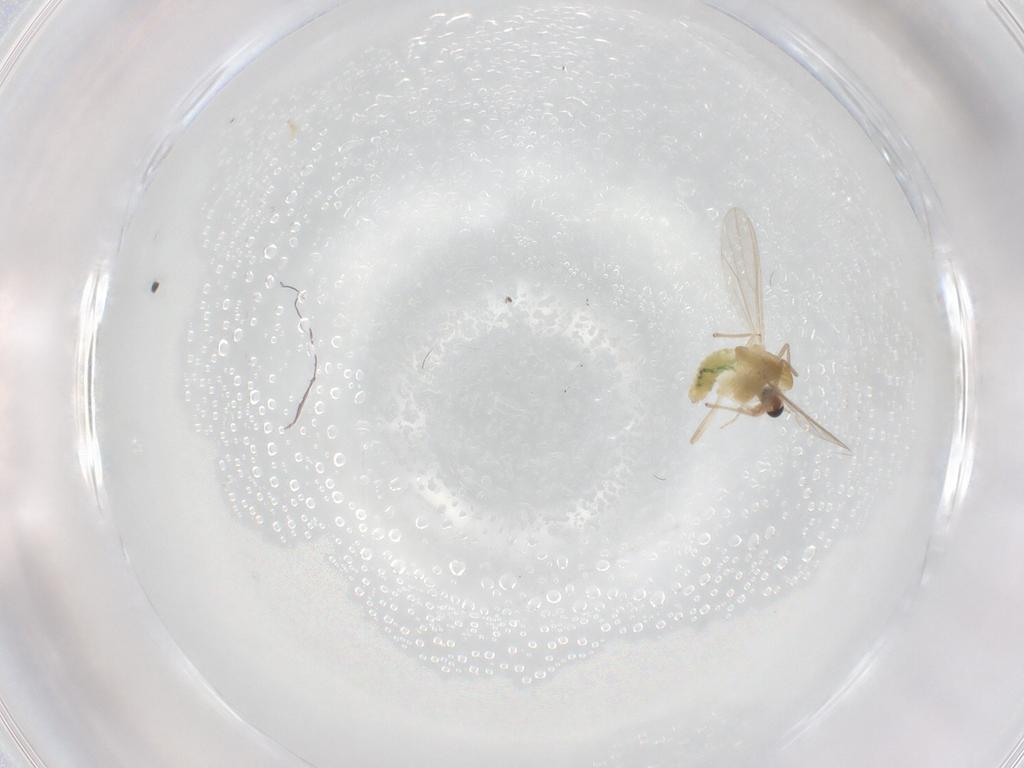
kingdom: Animalia
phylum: Arthropoda
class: Insecta
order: Diptera
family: Chironomidae
